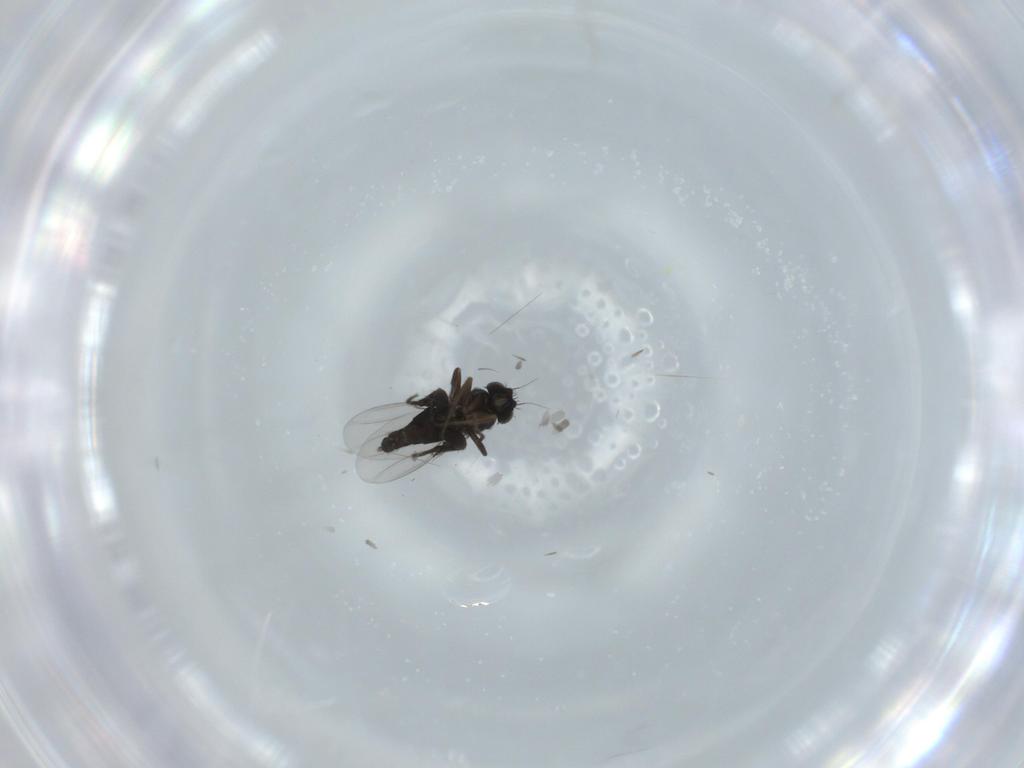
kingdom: Animalia
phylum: Arthropoda
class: Insecta
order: Diptera
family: Phoridae
